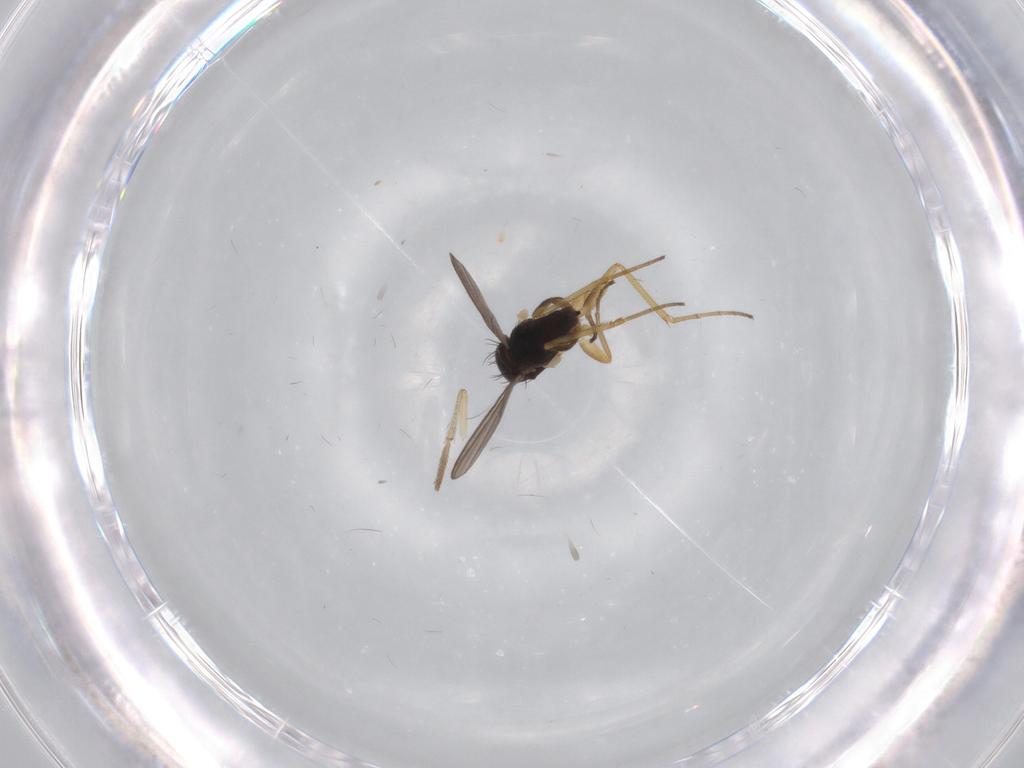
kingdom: Animalia
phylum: Arthropoda
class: Insecta
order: Diptera
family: Dolichopodidae
